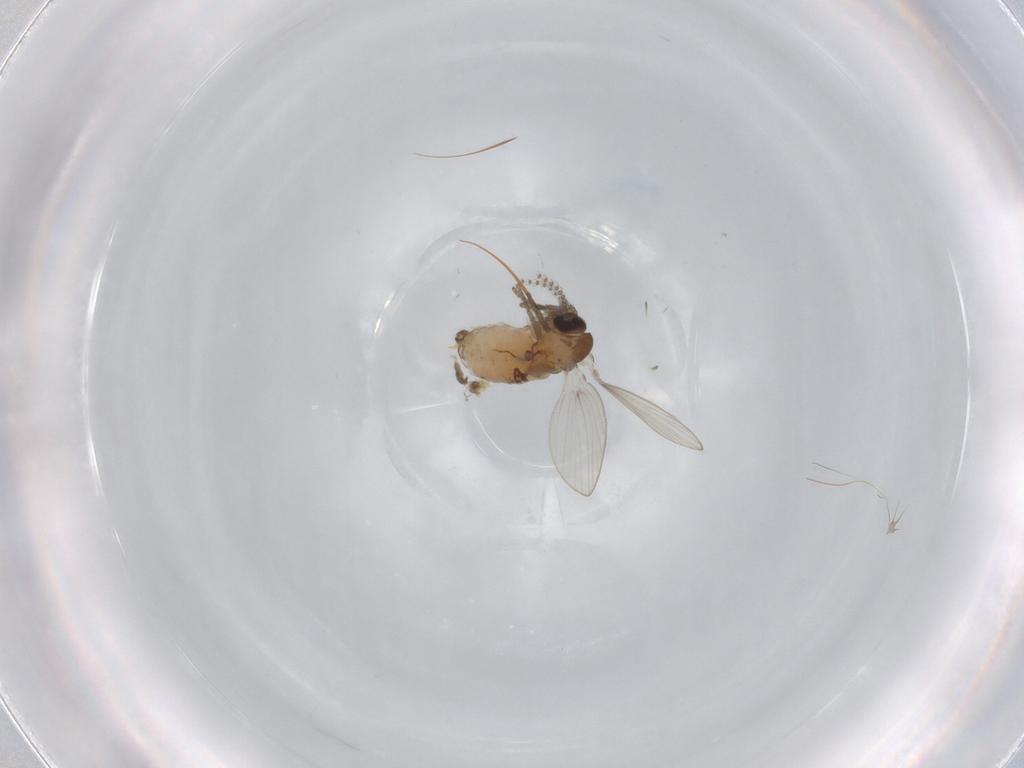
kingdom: Animalia
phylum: Arthropoda
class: Insecta
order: Diptera
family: Psychodidae
